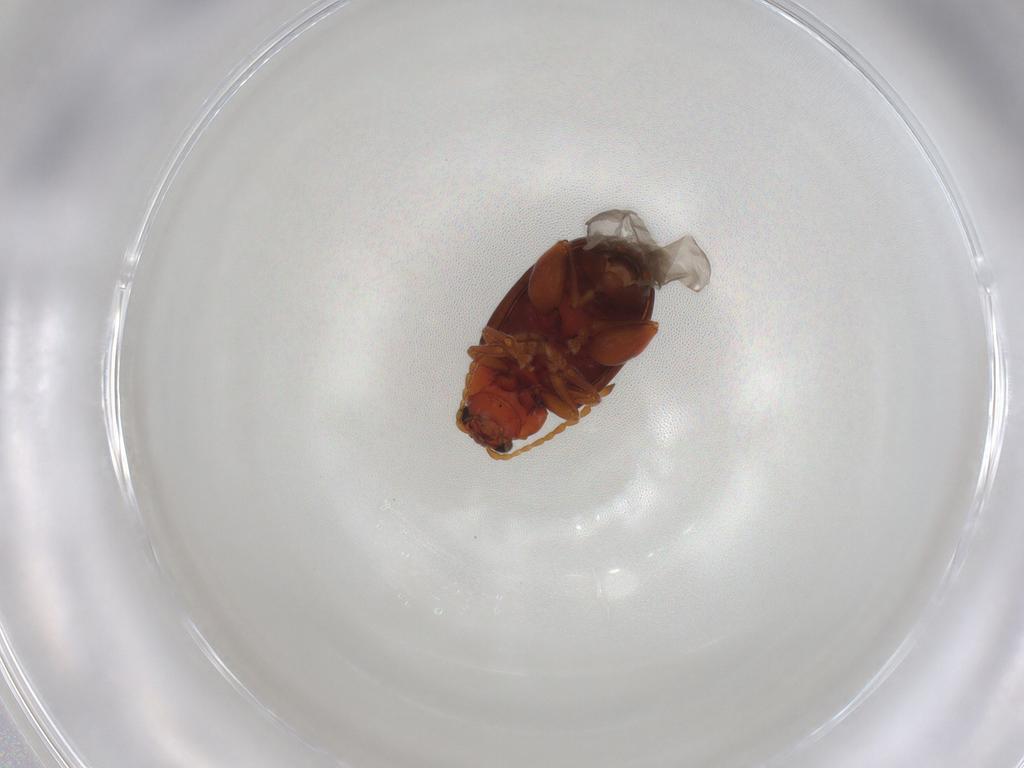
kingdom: Animalia
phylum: Arthropoda
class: Insecta
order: Coleoptera
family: Chrysomelidae
